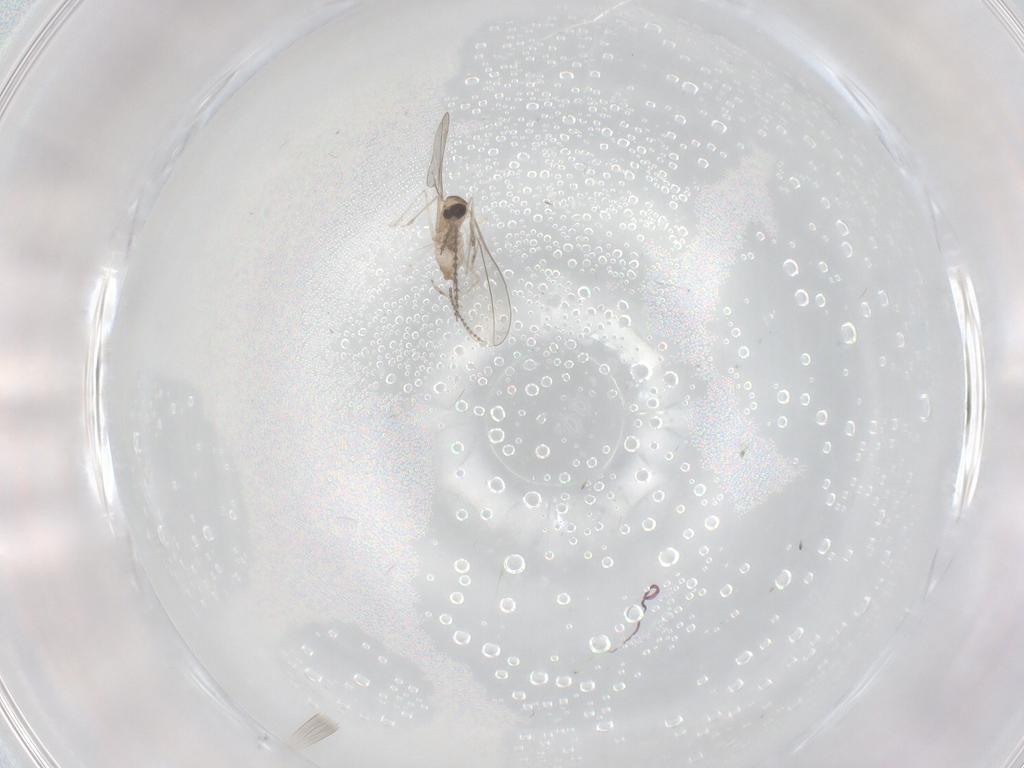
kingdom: Animalia
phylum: Arthropoda
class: Insecta
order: Diptera
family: Cecidomyiidae
